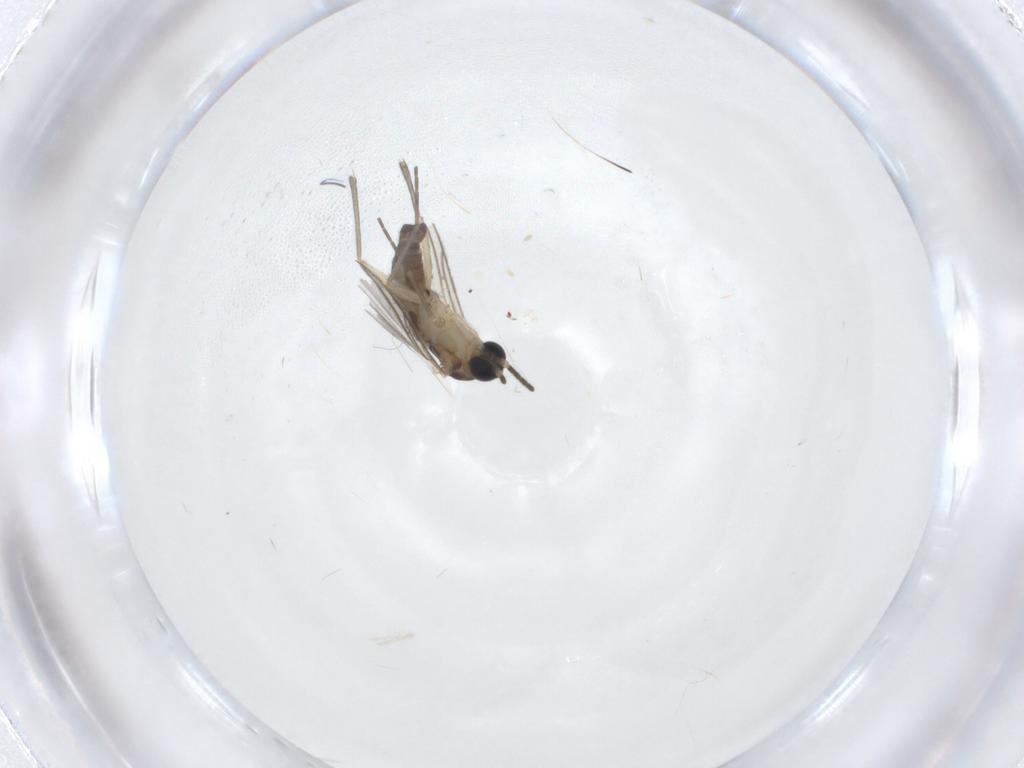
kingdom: Animalia
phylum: Arthropoda
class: Insecta
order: Diptera
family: Sciaridae
